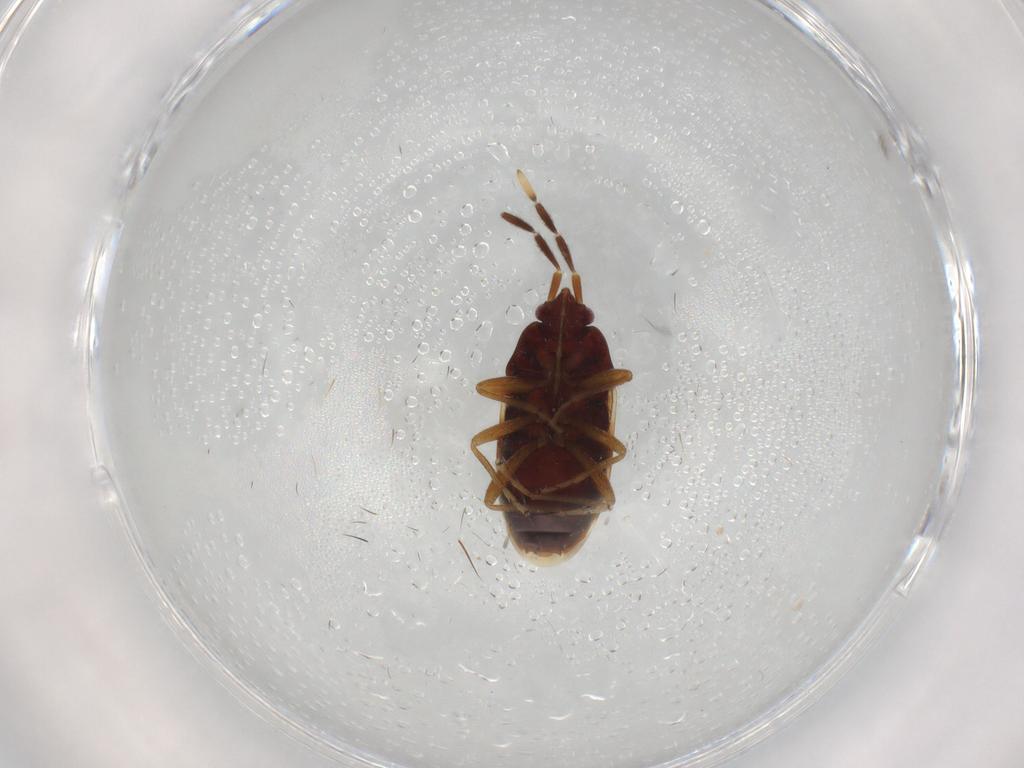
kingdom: Animalia
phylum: Arthropoda
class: Insecta
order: Hemiptera
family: Rhyparochromidae
